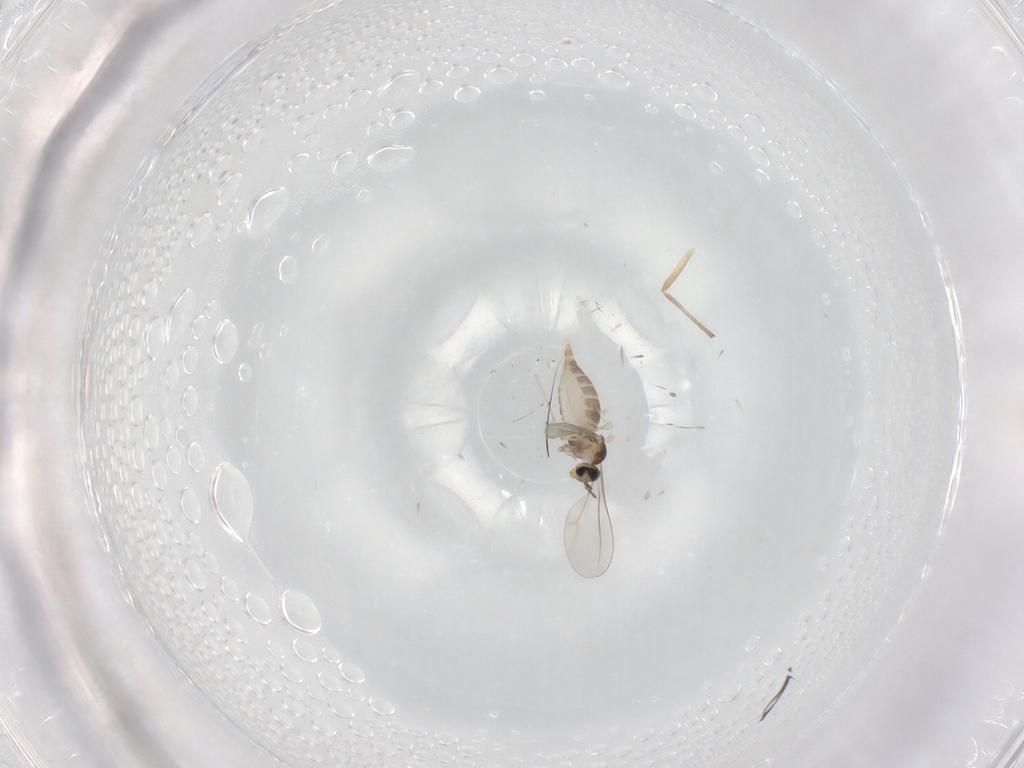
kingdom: Animalia
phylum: Arthropoda
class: Insecta
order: Diptera
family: Cecidomyiidae
